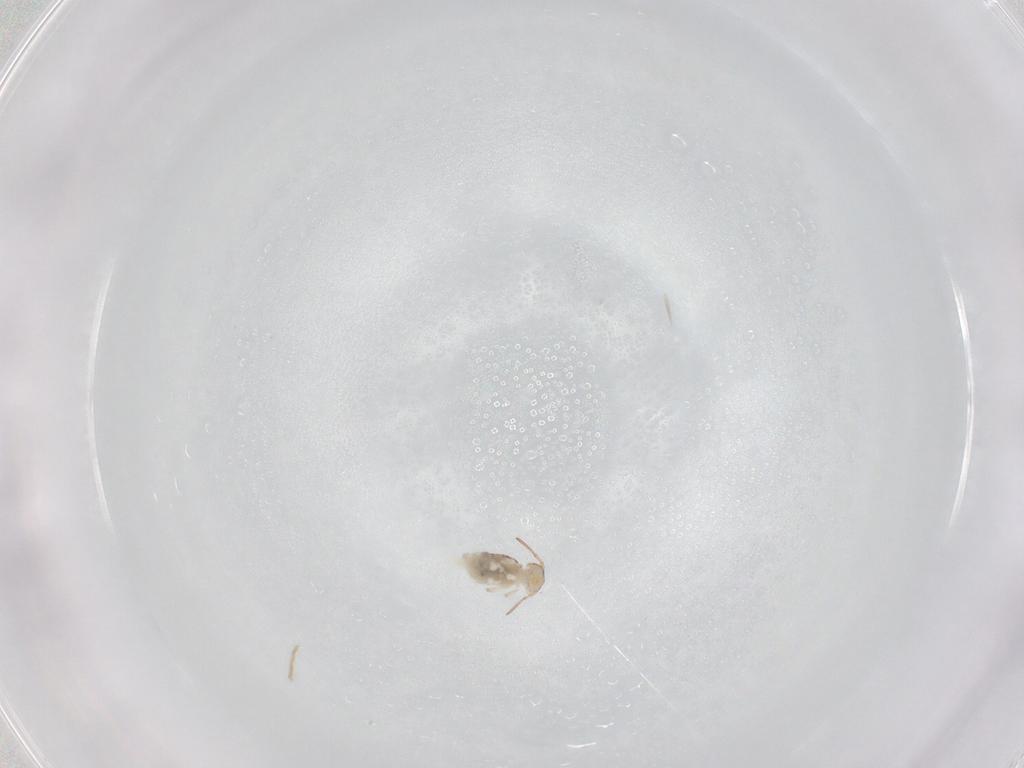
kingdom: Animalia
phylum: Arthropoda
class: Collembola
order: Symphypleona
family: Bourletiellidae
